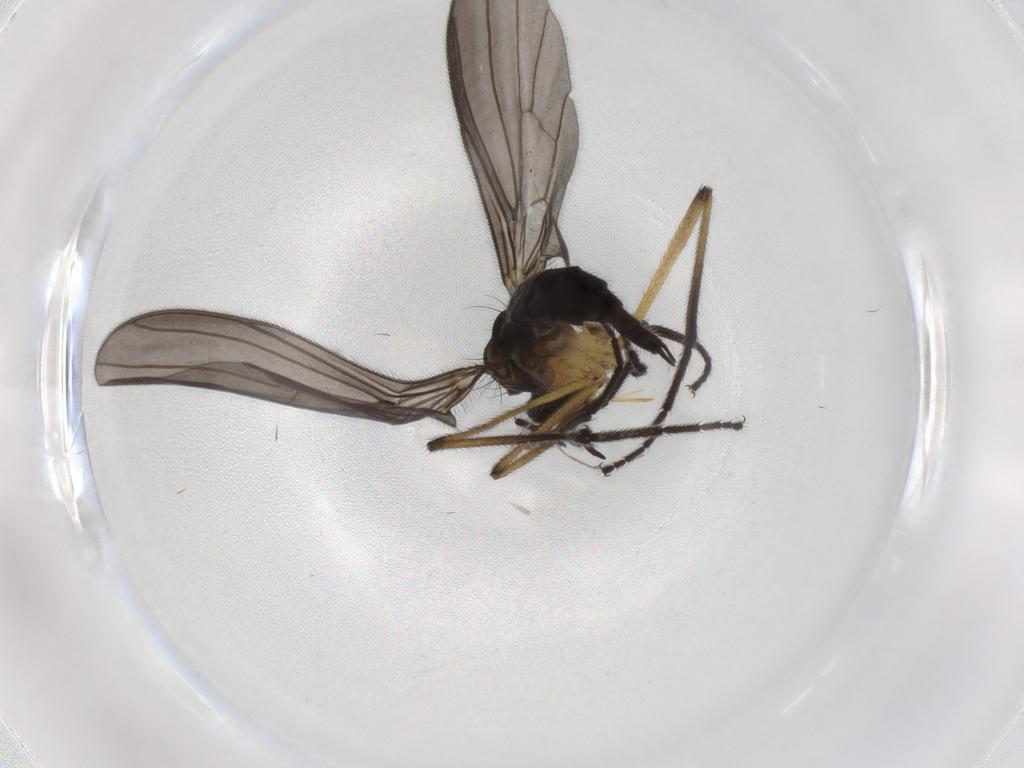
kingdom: Animalia
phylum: Arthropoda
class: Insecta
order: Diptera
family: Empididae
